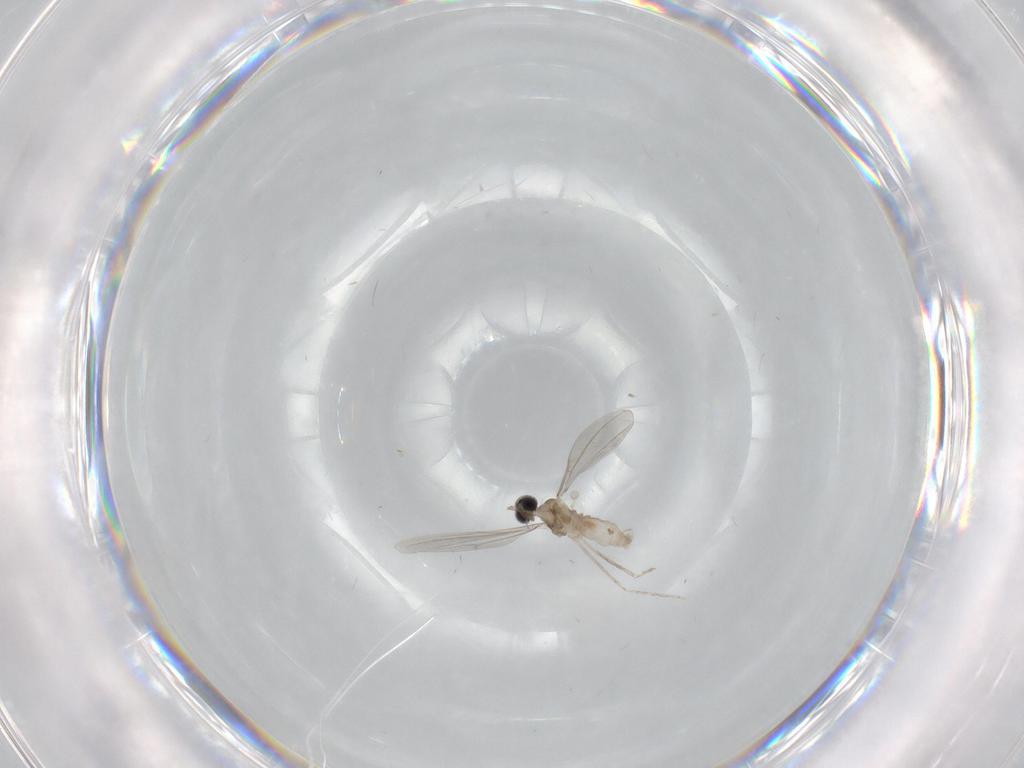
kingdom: Animalia
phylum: Arthropoda
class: Insecta
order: Diptera
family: Cecidomyiidae
